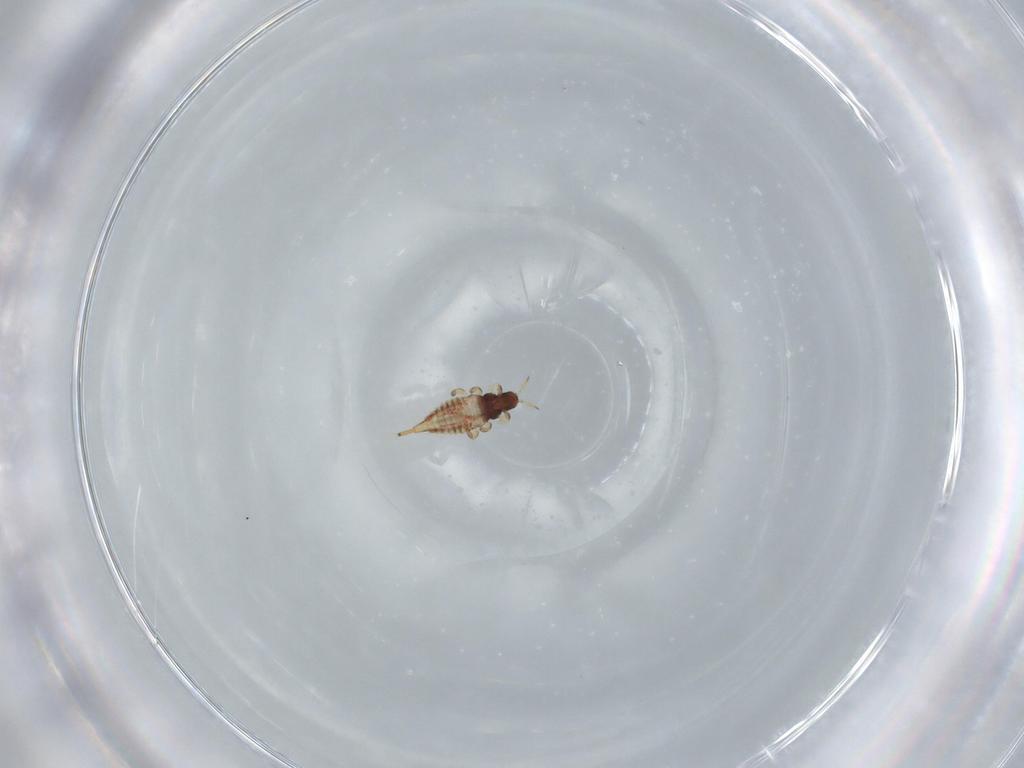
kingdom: Animalia
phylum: Arthropoda
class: Insecta
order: Thysanoptera
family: Phlaeothripidae
